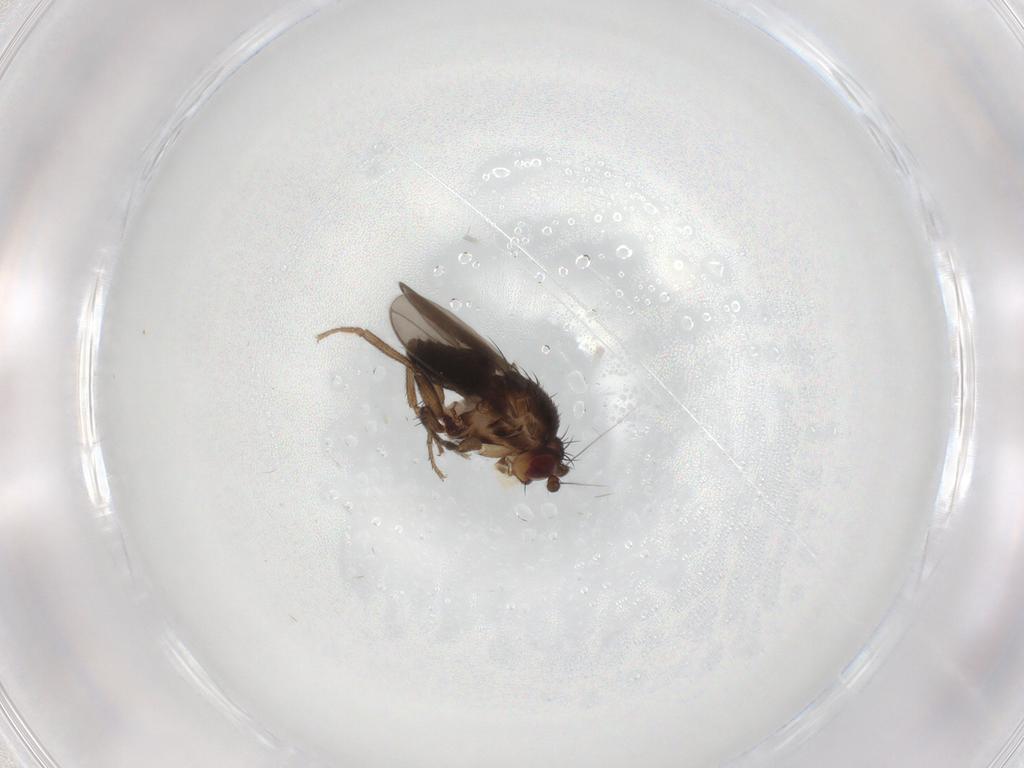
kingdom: Animalia
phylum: Arthropoda
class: Insecta
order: Diptera
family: Sphaeroceridae
